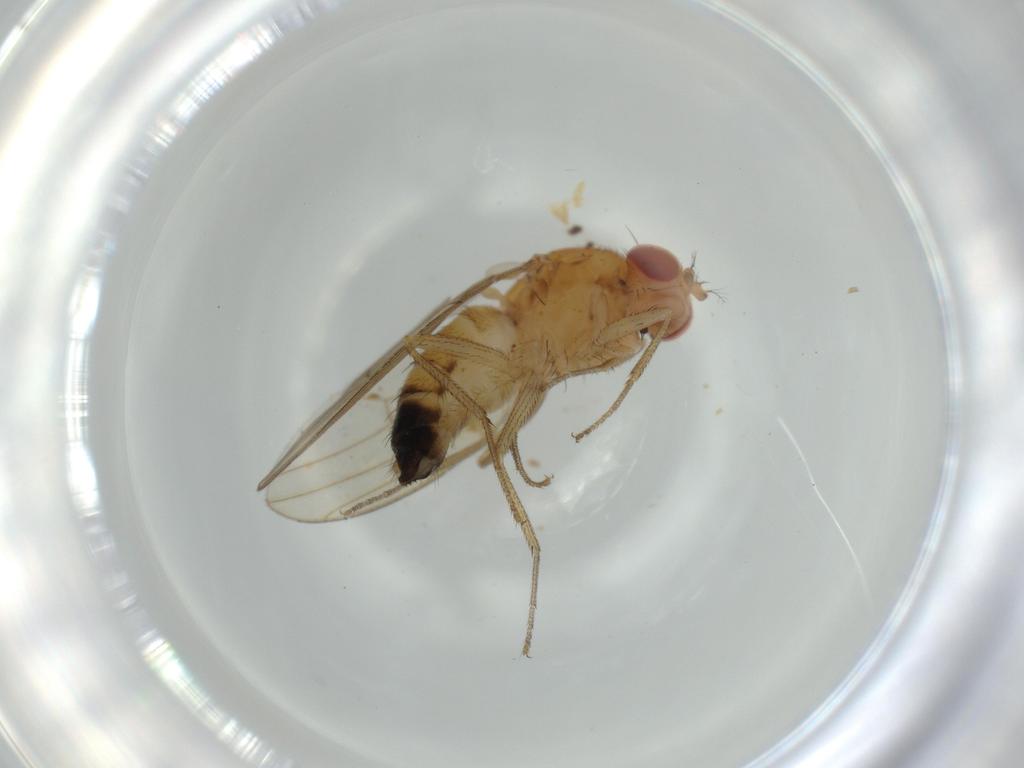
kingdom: Animalia
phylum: Arthropoda
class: Insecta
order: Diptera
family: Drosophilidae
